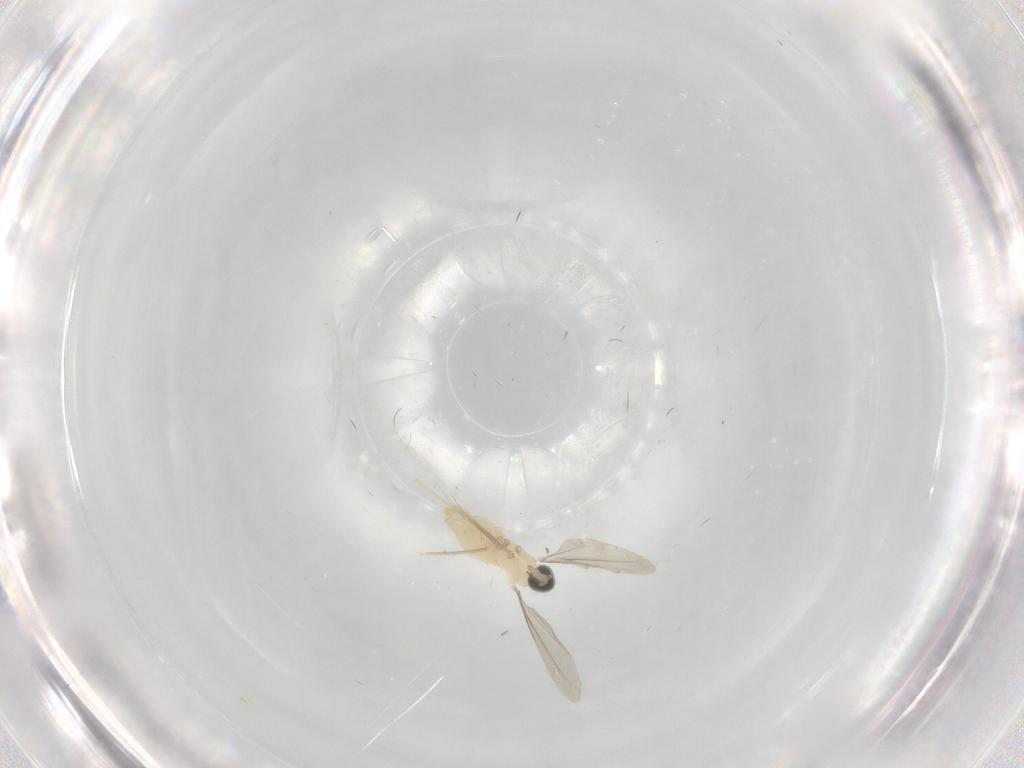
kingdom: Animalia
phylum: Arthropoda
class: Insecta
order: Diptera
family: Cecidomyiidae
